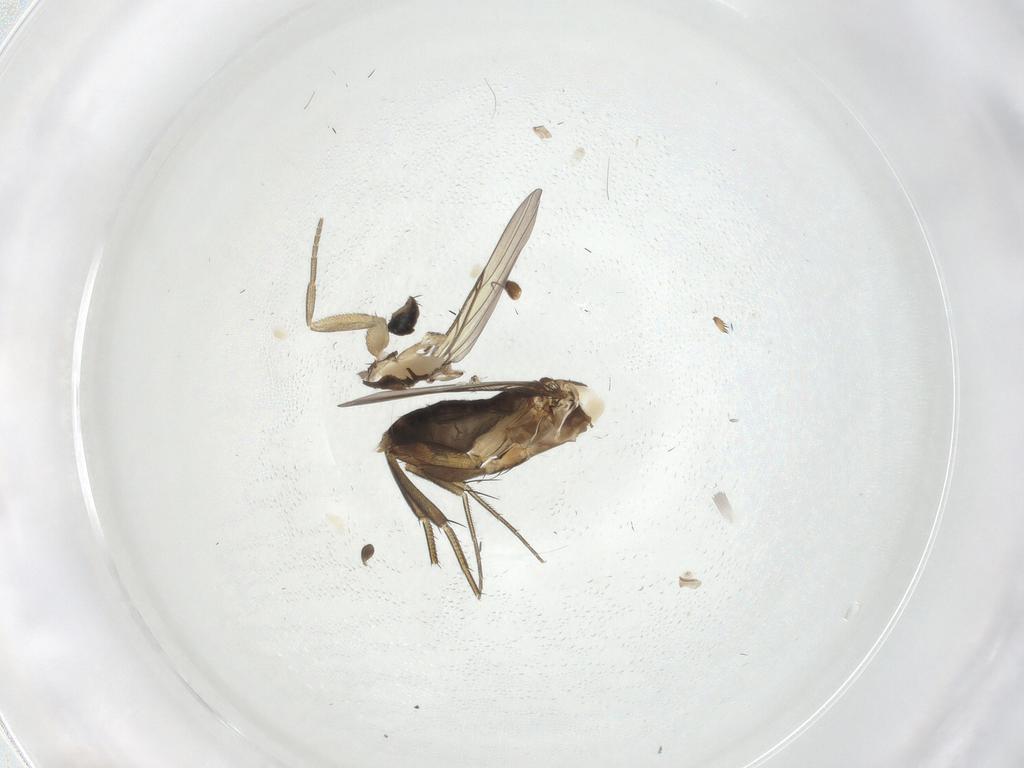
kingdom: Animalia
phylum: Arthropoda
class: Insecta
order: Diptera
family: Phoridae
